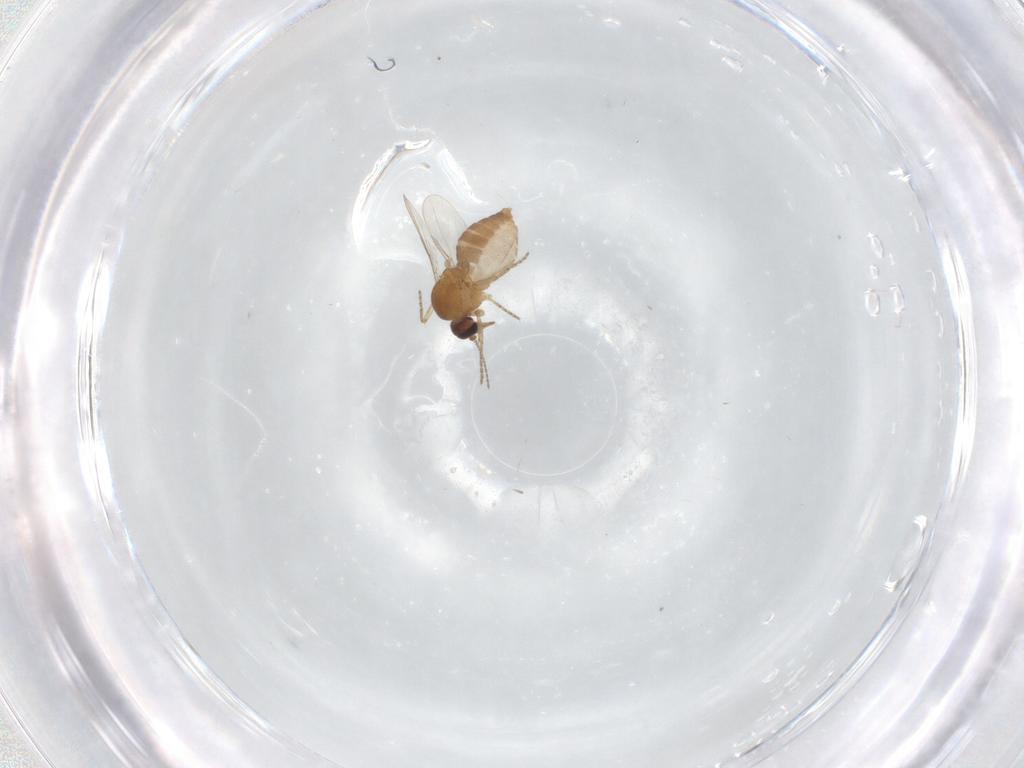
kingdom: Animalia
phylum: Arthropoda
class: Insecta
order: Diptera
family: Ceratopogonidae
